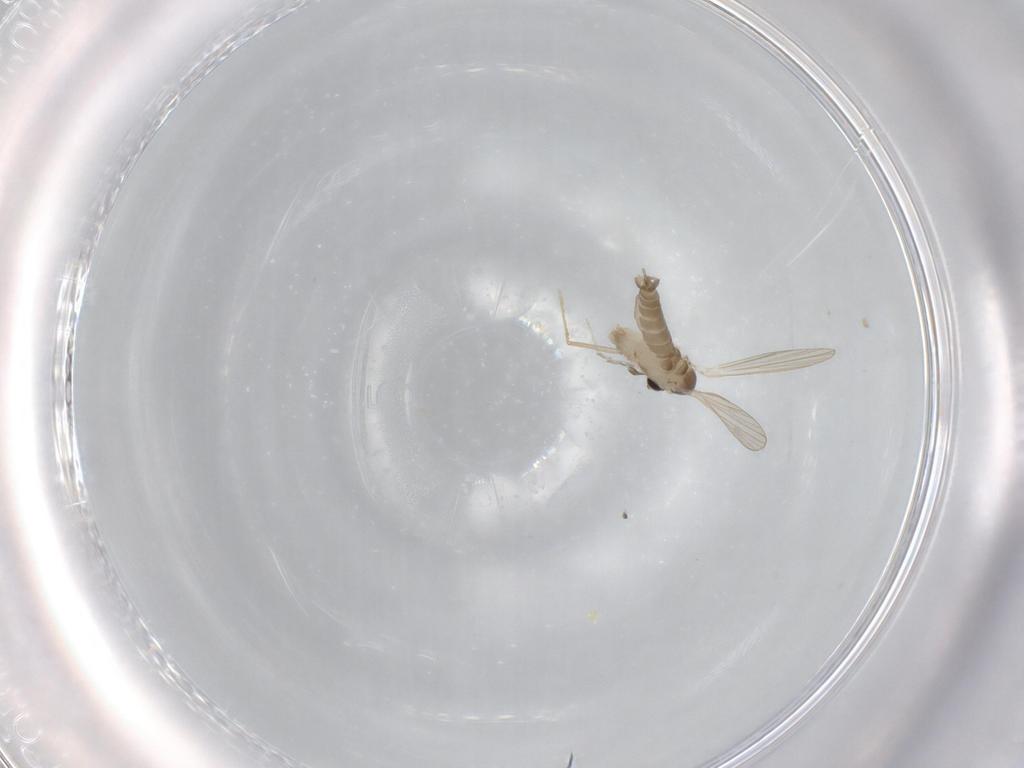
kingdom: Animalia
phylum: Arthropoda
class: Insecta
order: Diptera
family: Psychodidae
